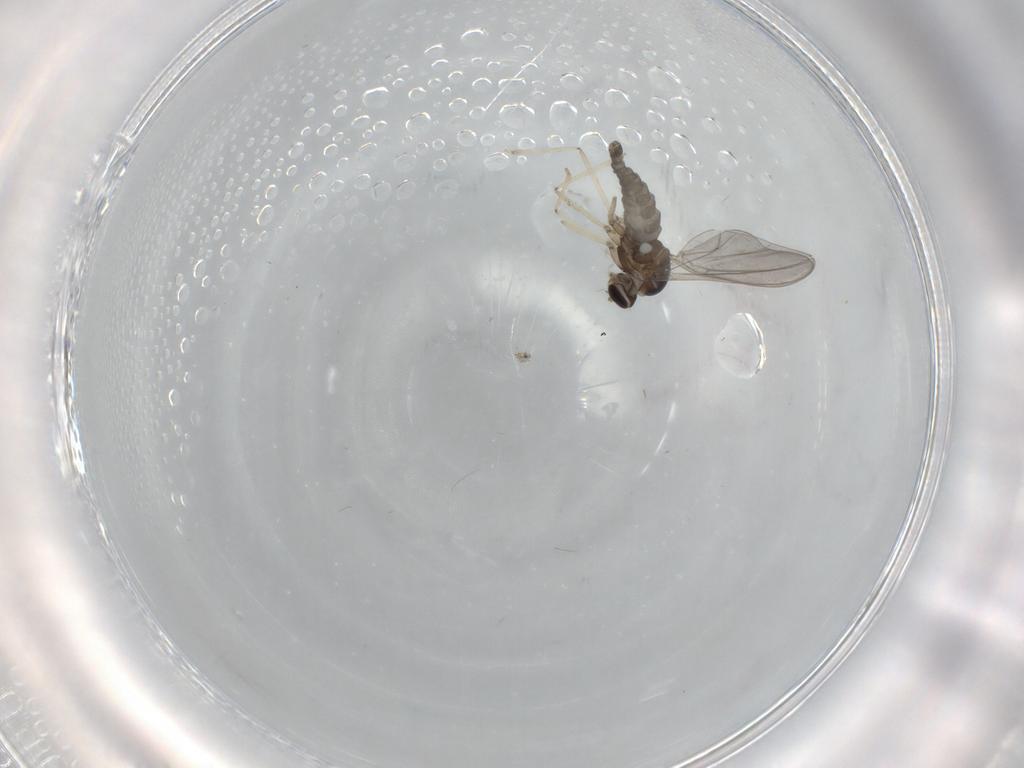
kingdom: Animalia
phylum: Arthropoda
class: Insecta
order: Diptera
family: Cecidomyiidae
